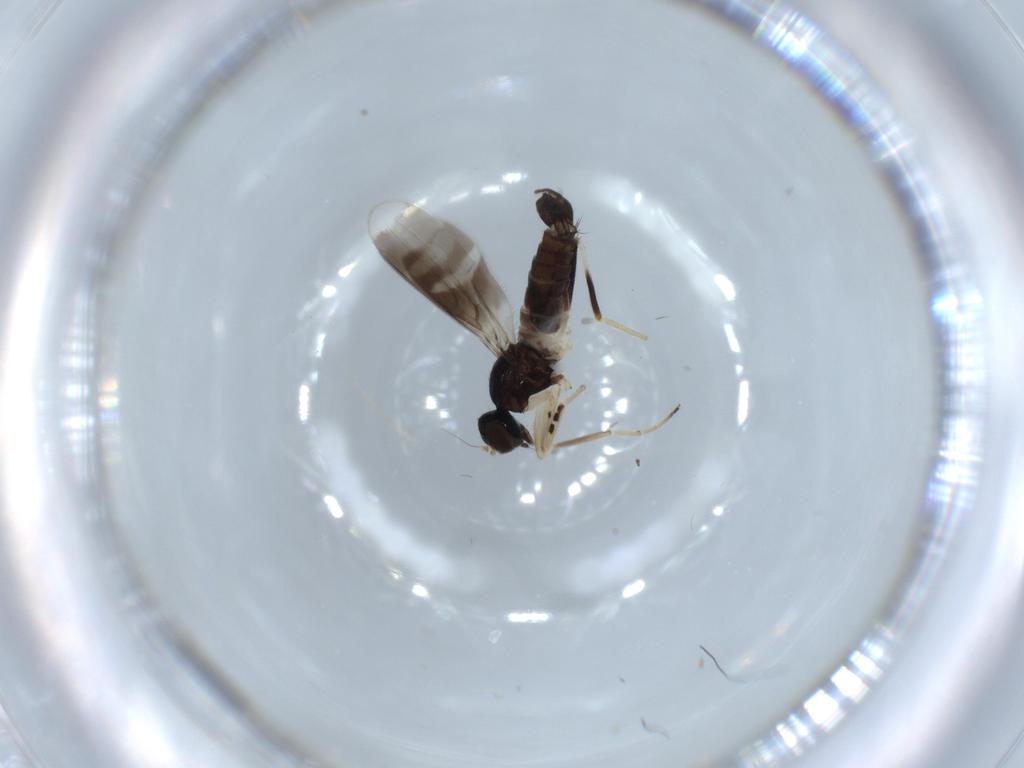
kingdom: Animalia
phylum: Arthropoda
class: Insecta
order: Diptera
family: Hybotidae
